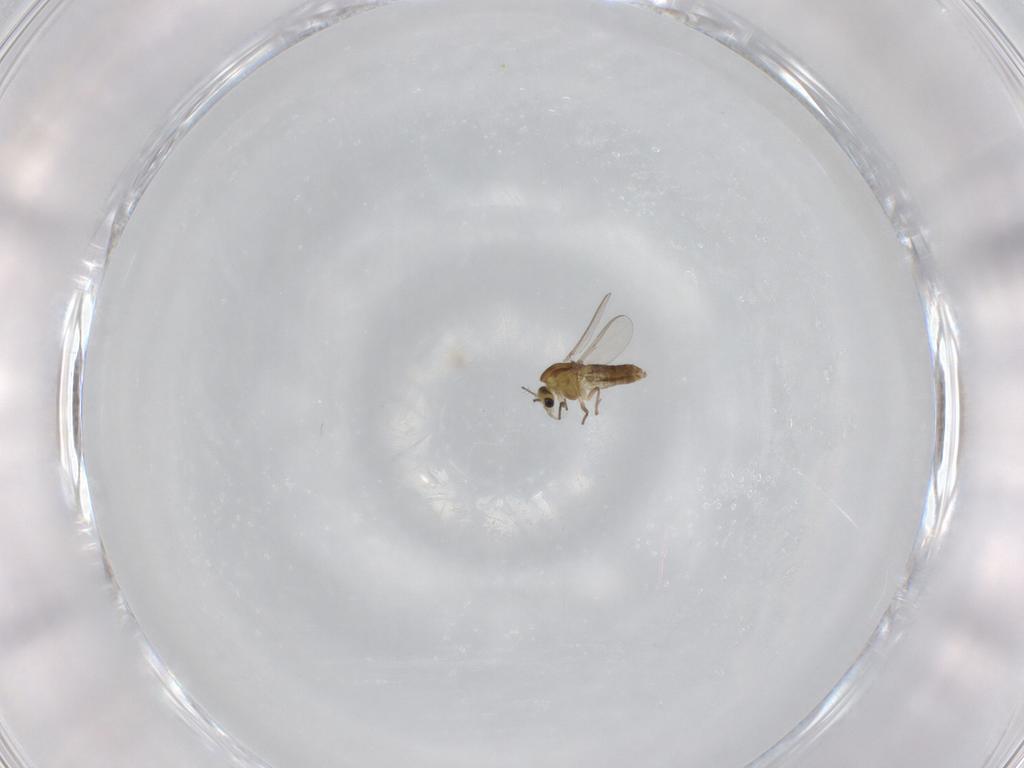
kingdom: Animalia
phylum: Arthropoda
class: Insecta
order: Diptera
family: Chironomidae
